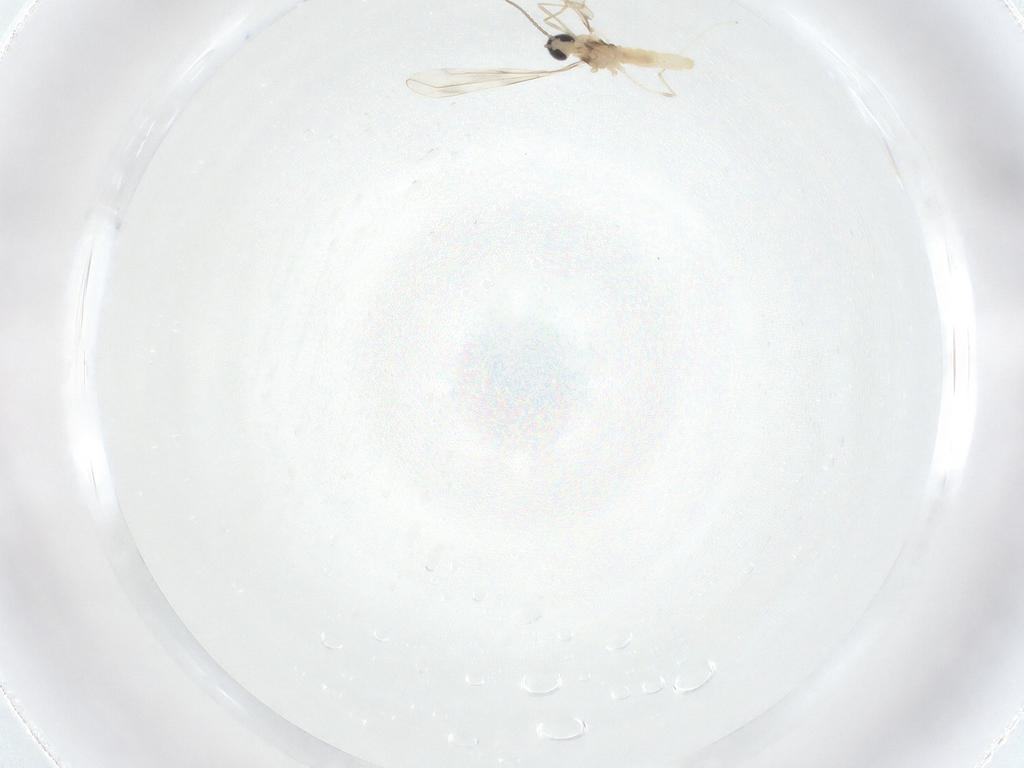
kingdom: Animalia
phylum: Arthropoda
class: Insecta
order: Diptera
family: Cecidomyiidae
